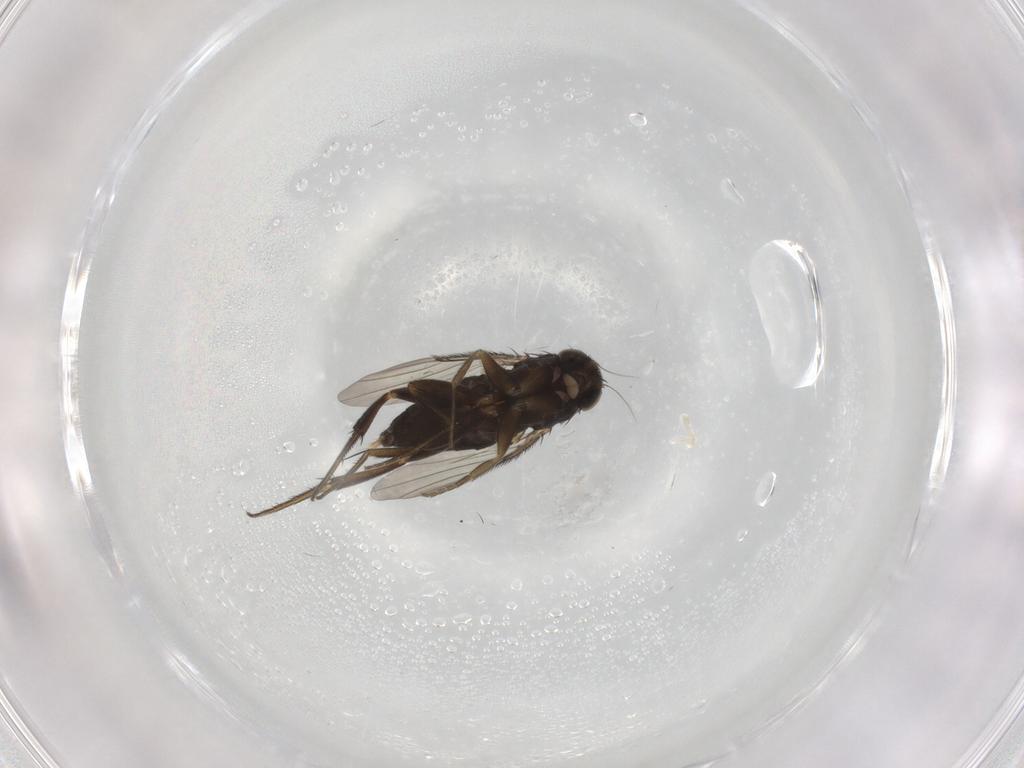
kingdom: Animalia
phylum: Arthropoda
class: Insecta
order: Diptera
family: Phoridae
